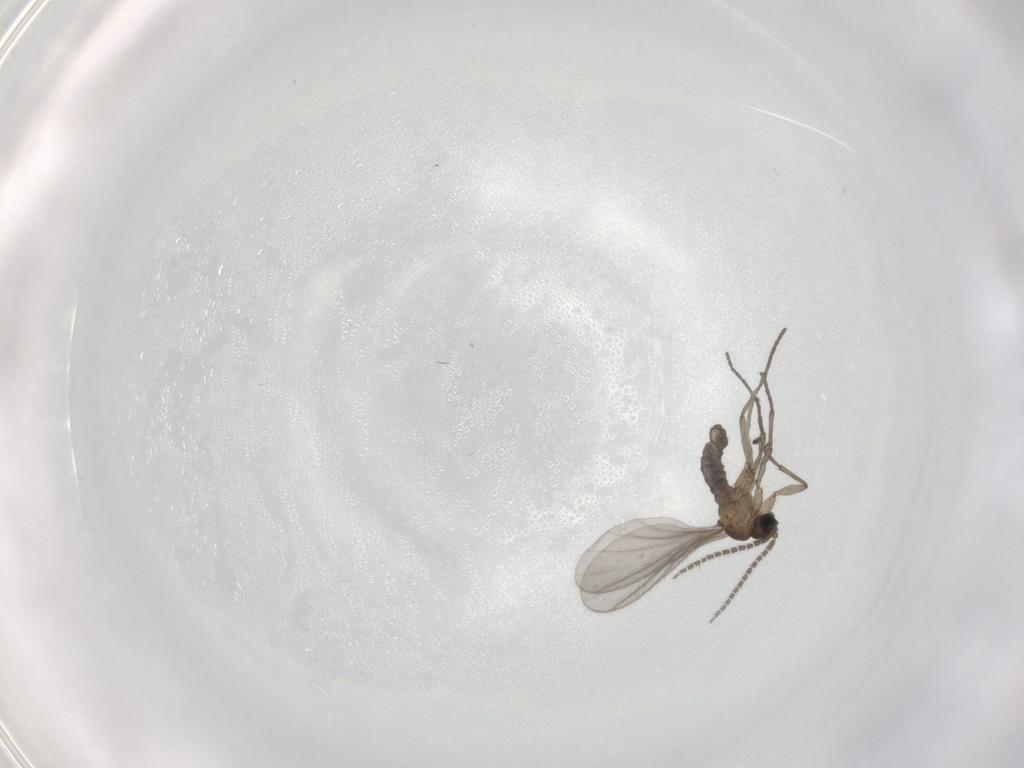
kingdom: Animalia
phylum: Arthropoda
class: Insecta
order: Diptera
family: Sciaridae
